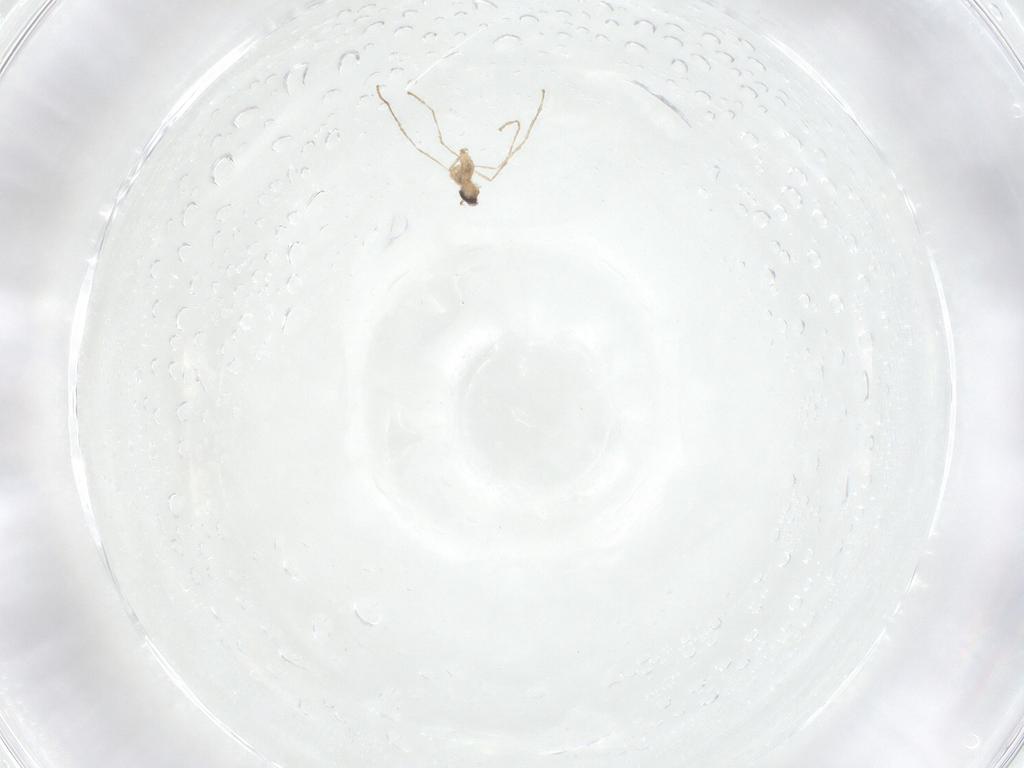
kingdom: Animalia
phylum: Arthropoda
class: Insecta
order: Diptera
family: Cecidomyiidae
